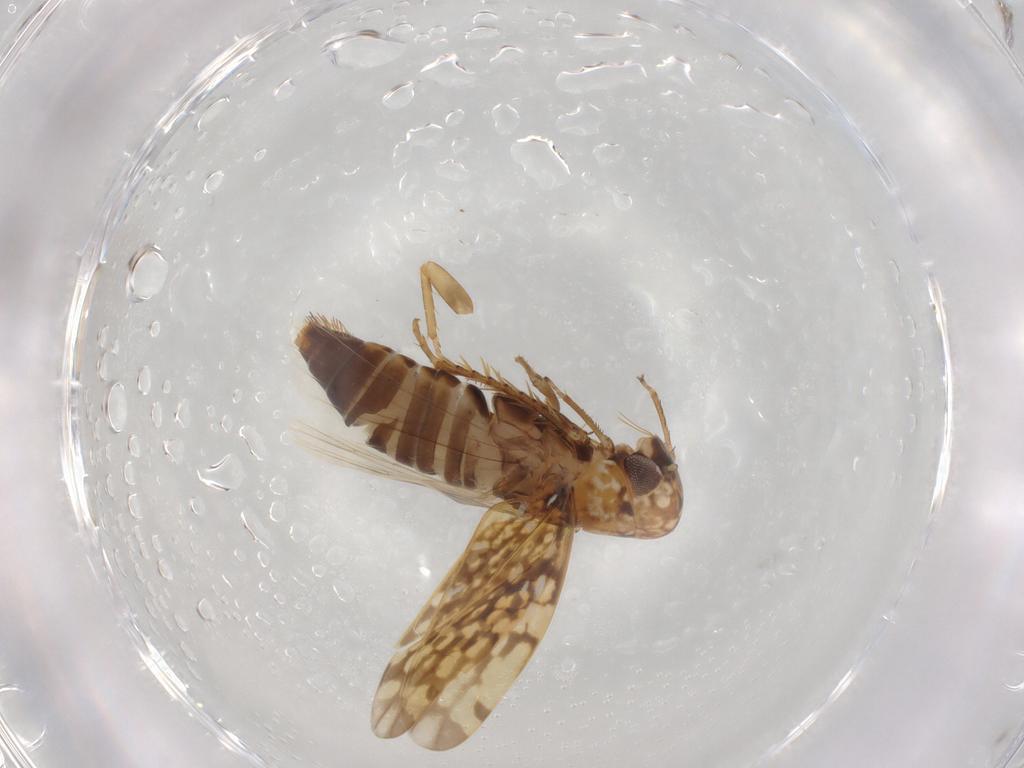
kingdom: Animalia
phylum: Arthropoda
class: Insecta
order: Hemiptera
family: Cicadellidae
